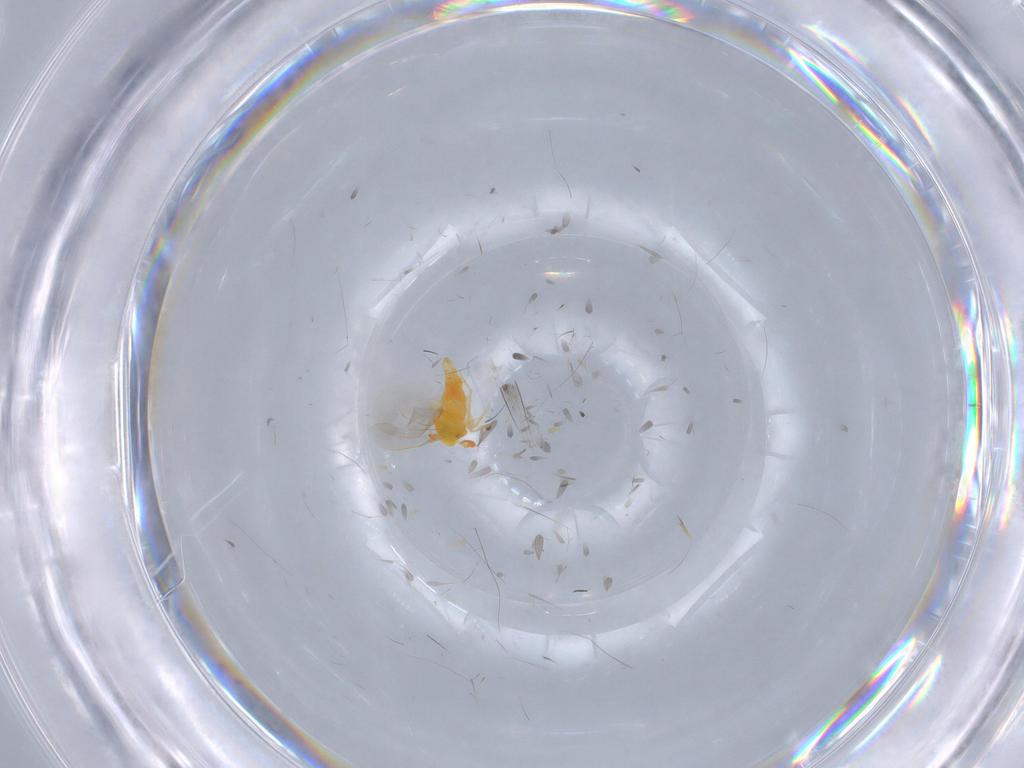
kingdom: Animalia
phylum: Arthropoda
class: Insecta
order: Hemiptera
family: Aleyrodidae
